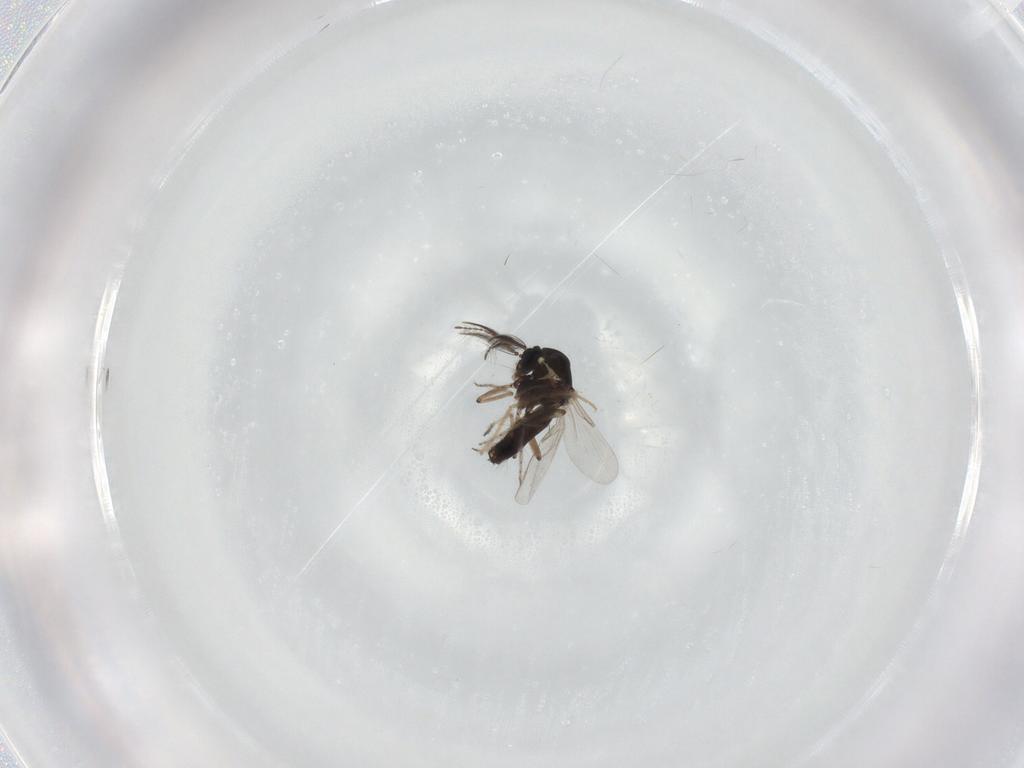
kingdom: Animalia
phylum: Arthropoda
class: Insecta
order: Diptera
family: Ceratopogonidae
